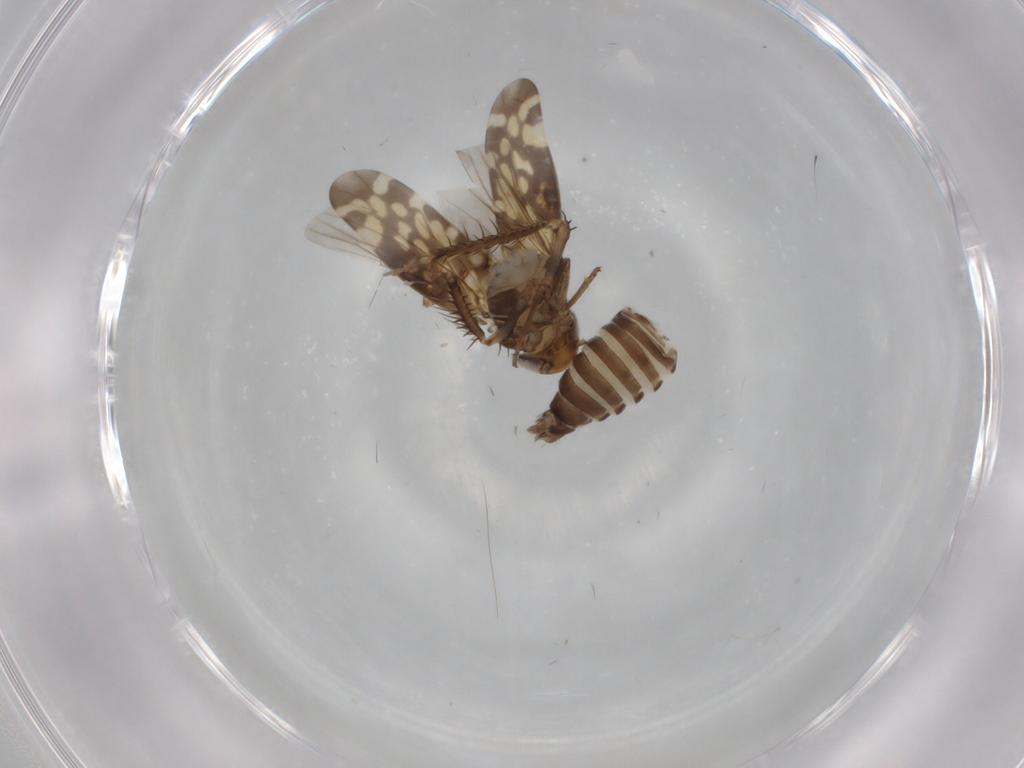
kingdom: Animalia
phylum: Arthropoda
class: Insecta
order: Hemiptera
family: Cicadellidae
